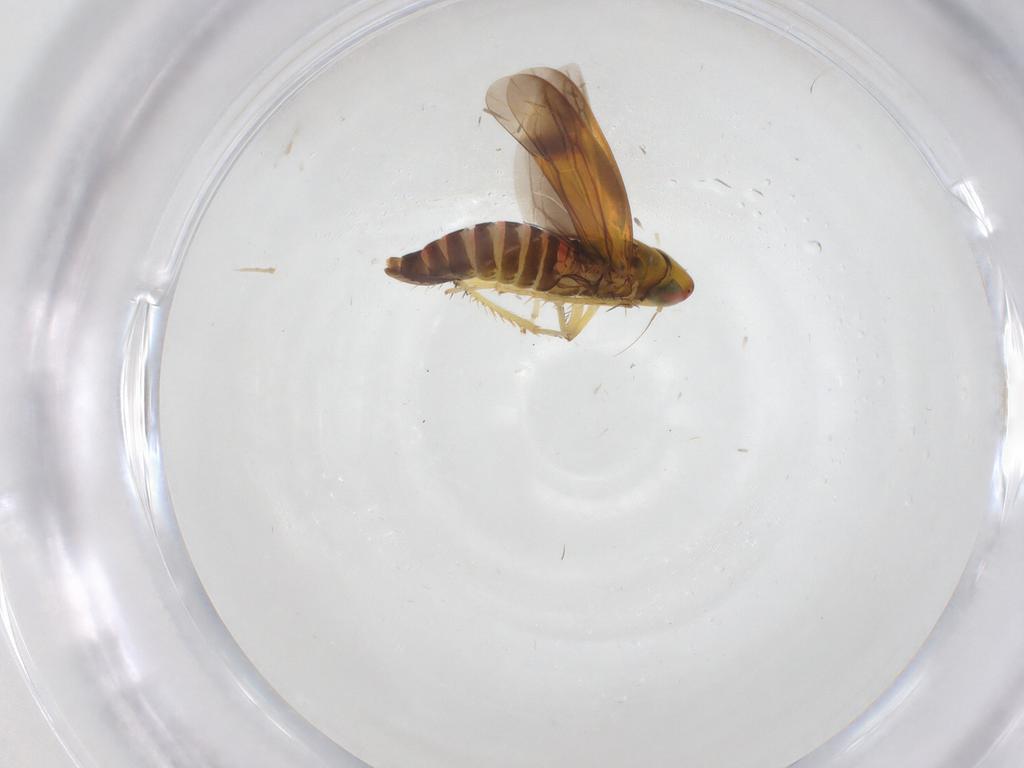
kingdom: Animalia
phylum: Arthropoda
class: Insecta
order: Hemiptera
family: Cicadellidae
